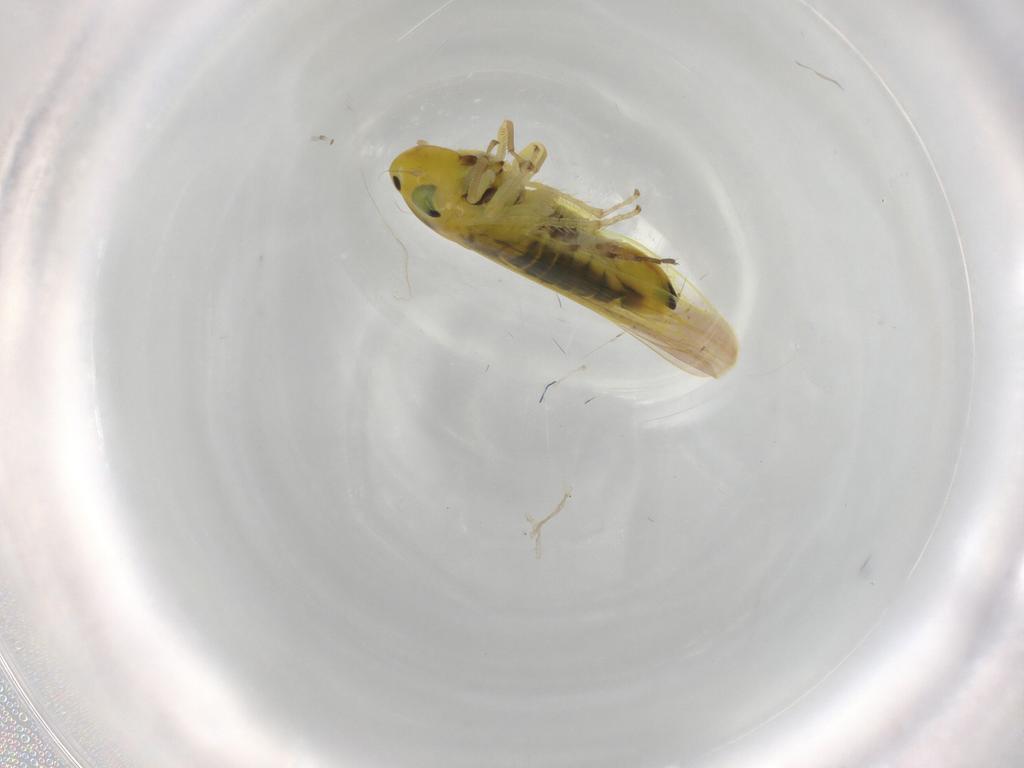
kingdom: Animalia
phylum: Arthropoda
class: Insecta
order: Hemiptera
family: Cicadellidae
